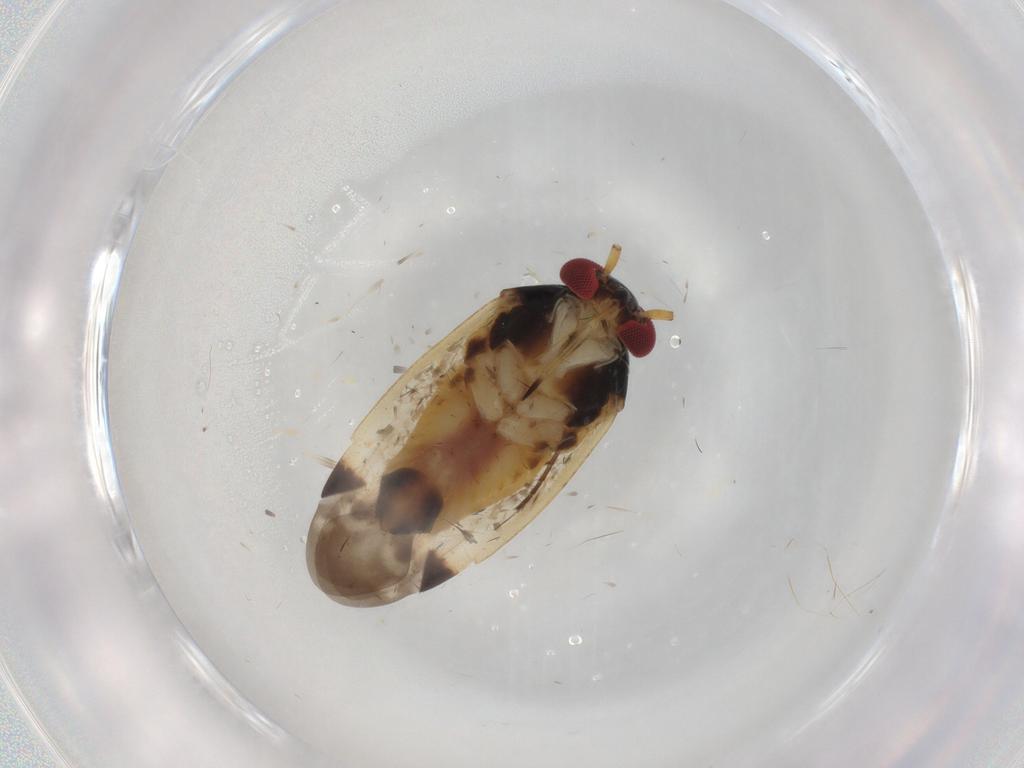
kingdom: Animalia
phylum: Arthropoda
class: Insecta
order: Hemiptera
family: Miridae
